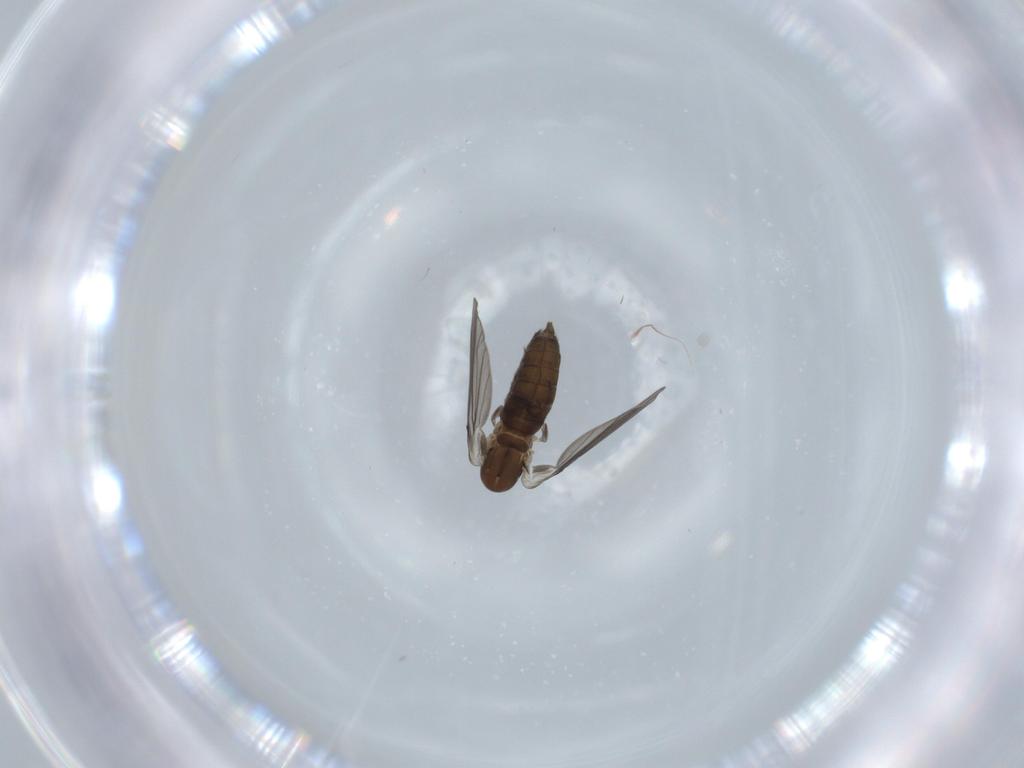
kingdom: Animalia
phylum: Arthropoda
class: Insecta
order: Diptera
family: Psychodidae
